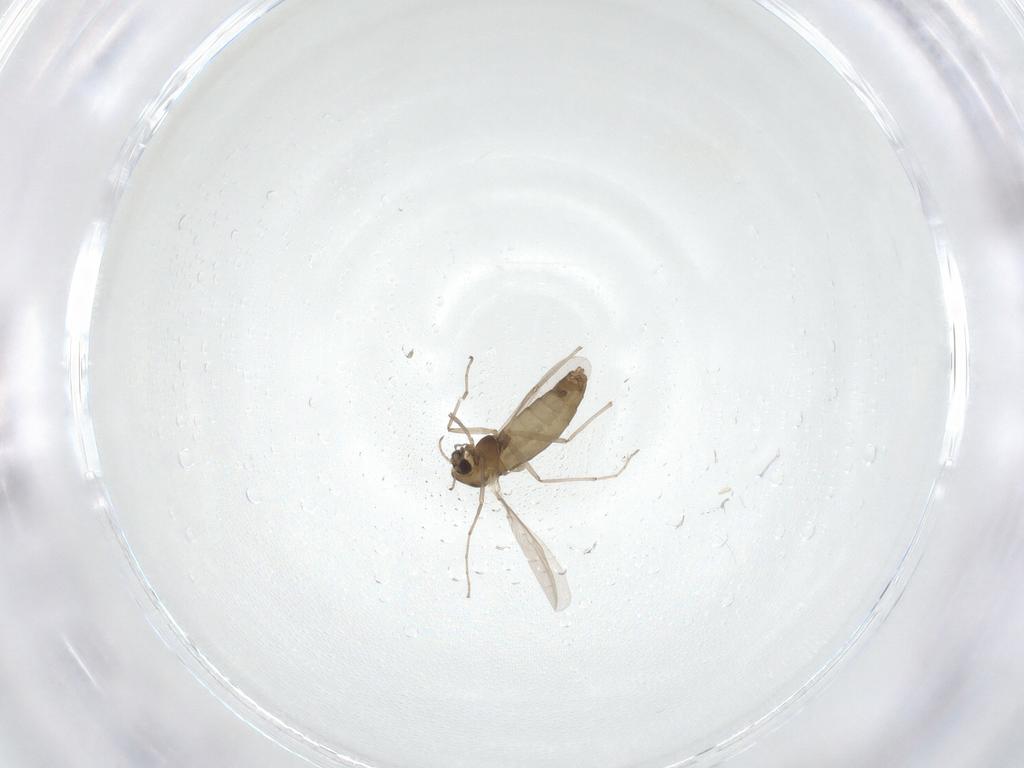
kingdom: Animalia
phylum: Arthropoda
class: Insecta
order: Diptera
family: Chironomidae
